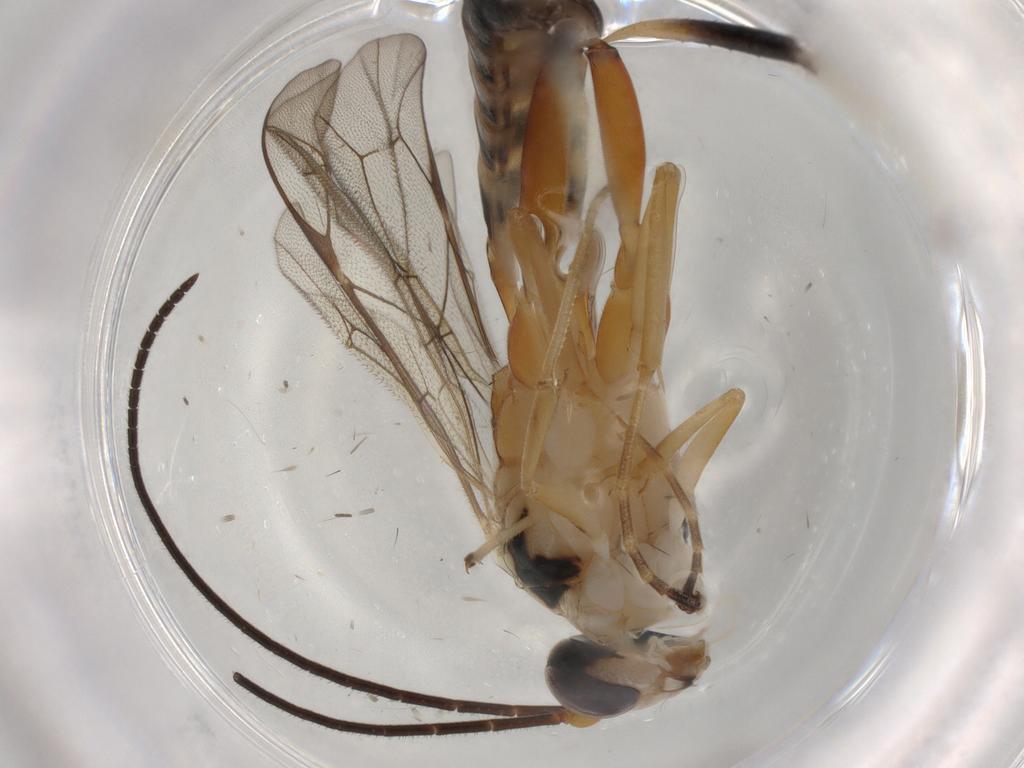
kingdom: Animalia
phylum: Arthropoda
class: Insecta
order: Hymenoptera
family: Ichneumonidae
